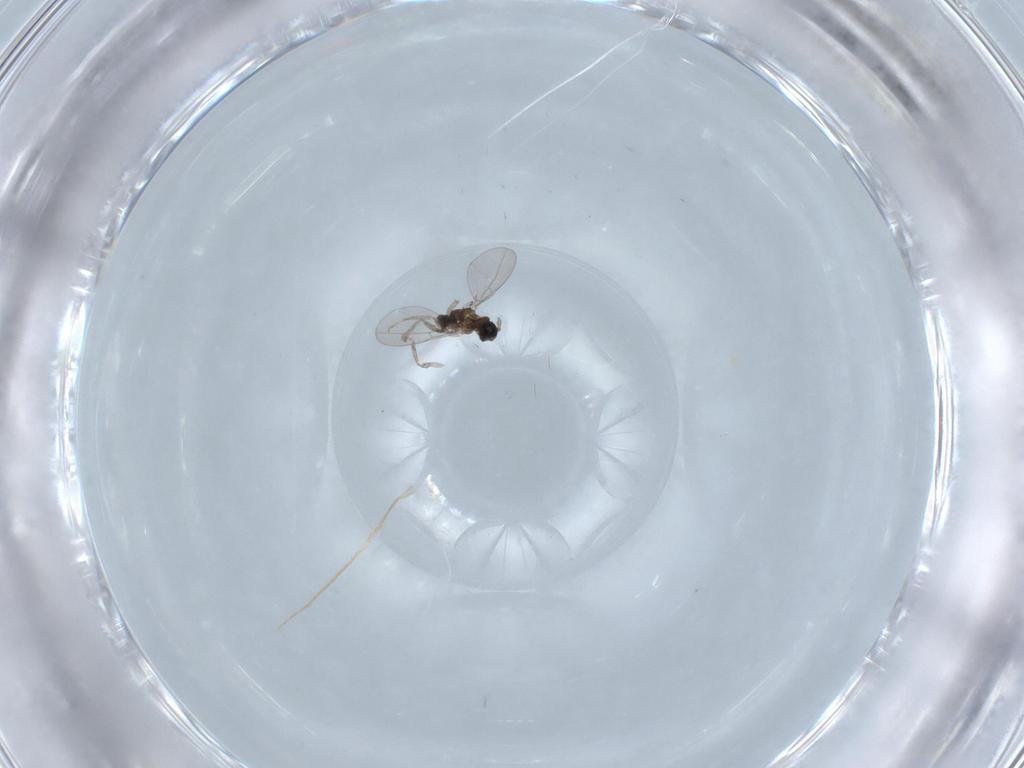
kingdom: Animalia
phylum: Arthropoda
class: Insecta
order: Diptera
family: Cecidomyiidae
